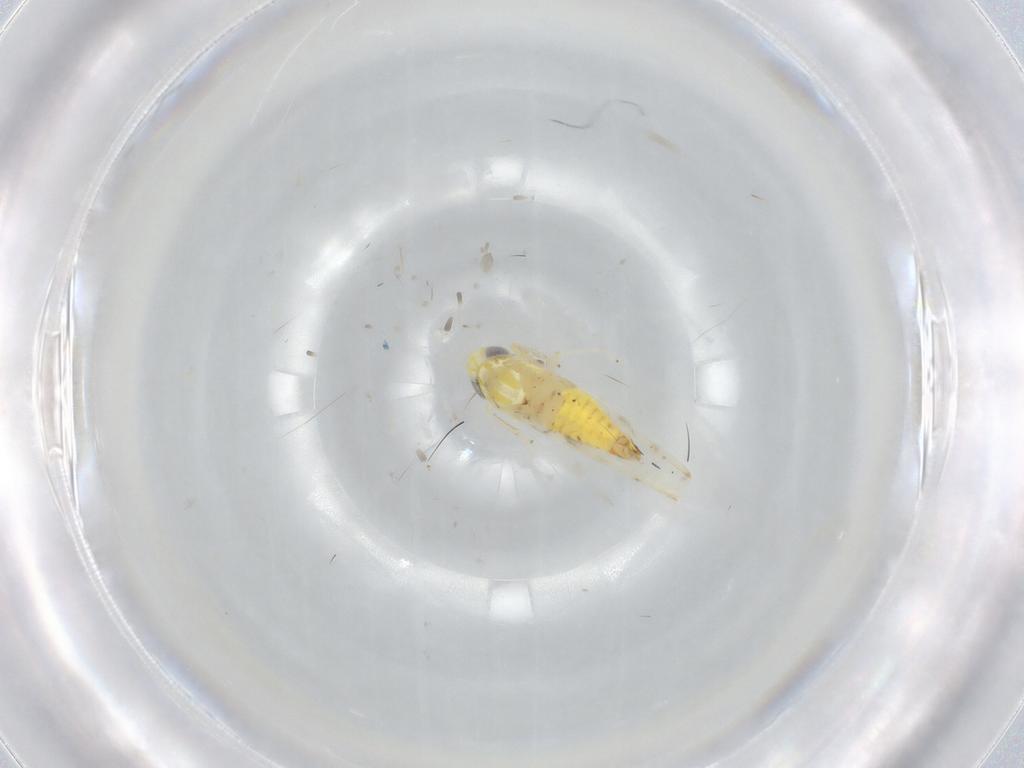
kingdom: Animalia
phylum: Arthropoda
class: Insecta
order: Hemiptera
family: Cicadellidae
